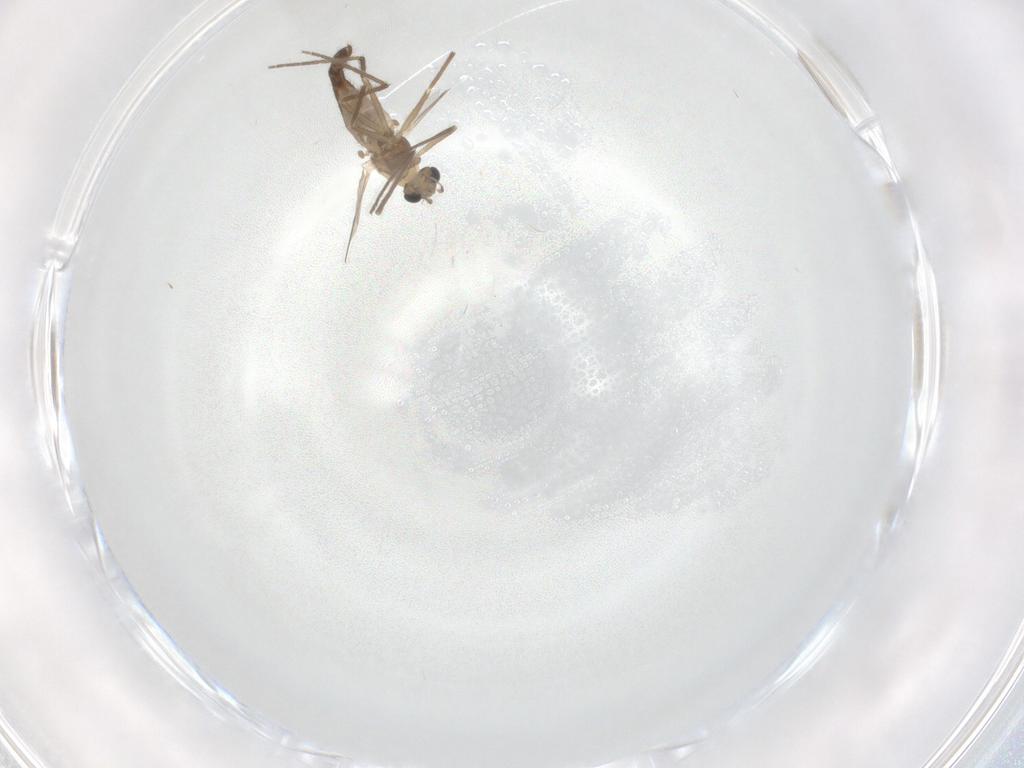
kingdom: Animalia
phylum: Arthropoda
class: Insecta
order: Diptera
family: Chironomidae
